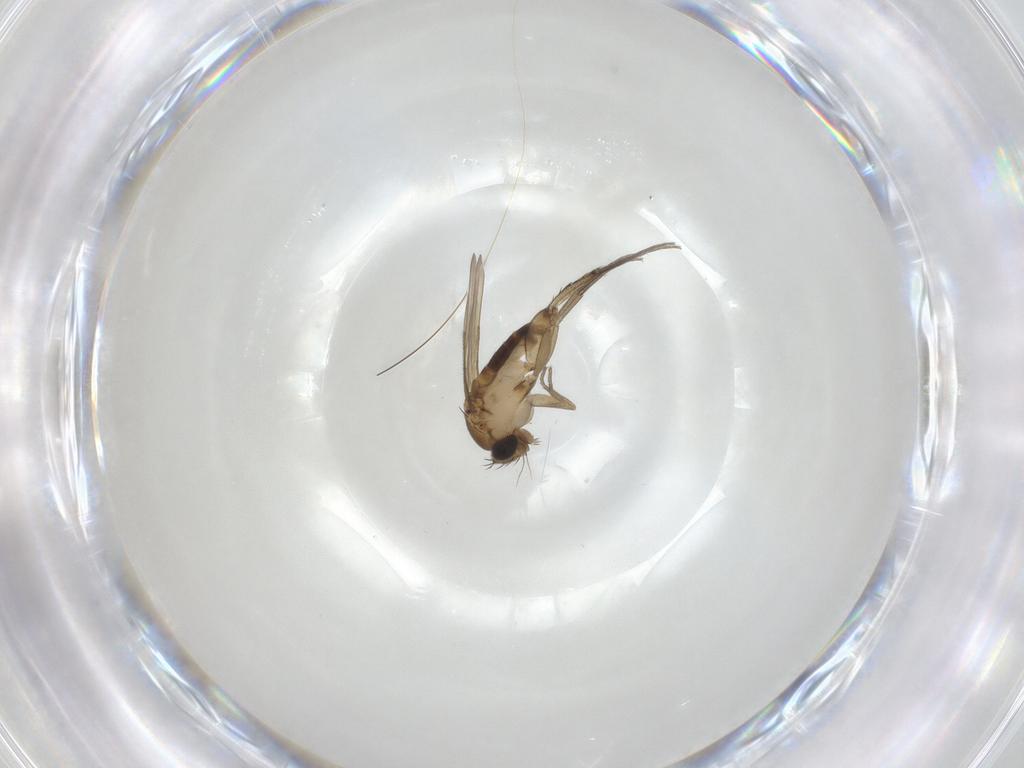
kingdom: Animalia
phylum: Arthropoda
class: Insecta
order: Diptera
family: Phoridae
